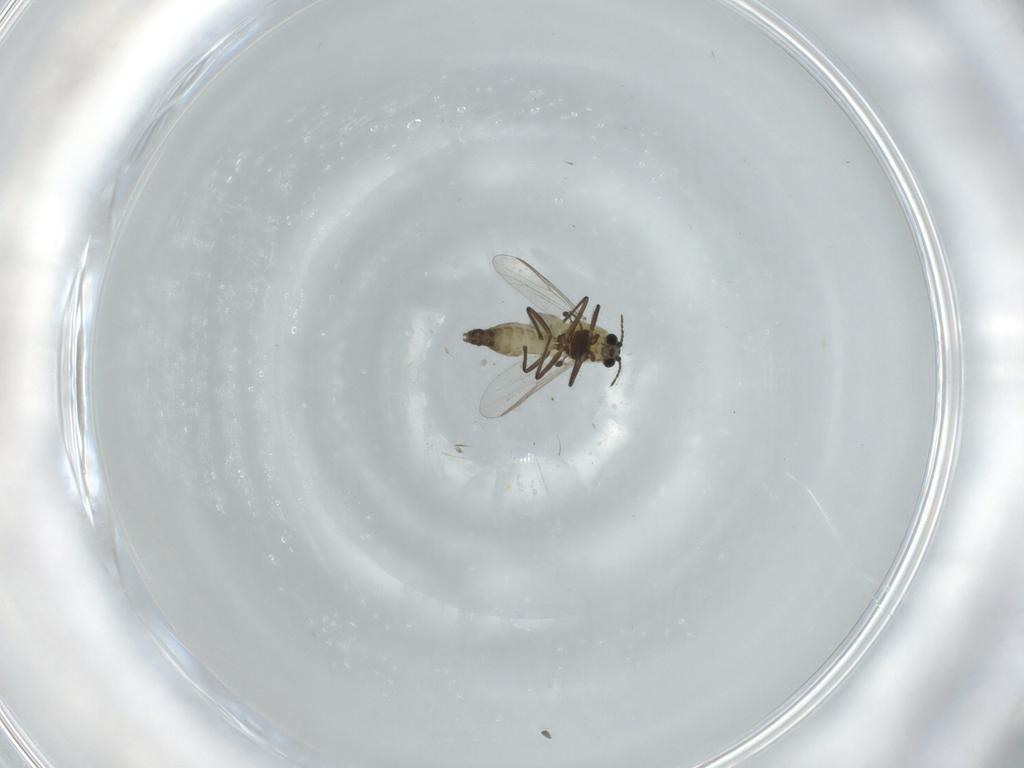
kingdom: Animalia
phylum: Arthropoda
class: Insecta
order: Diptera
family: Chironomidae
